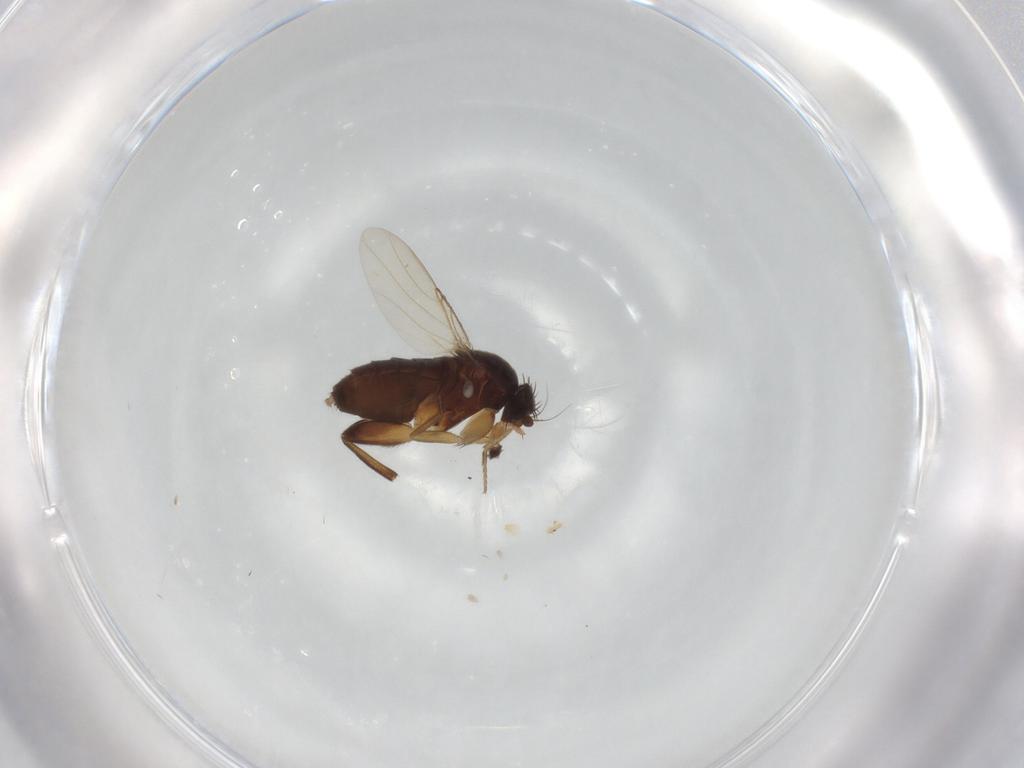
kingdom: Animalia
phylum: Arthropoda
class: Insecta
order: Diptera
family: Phoridae
